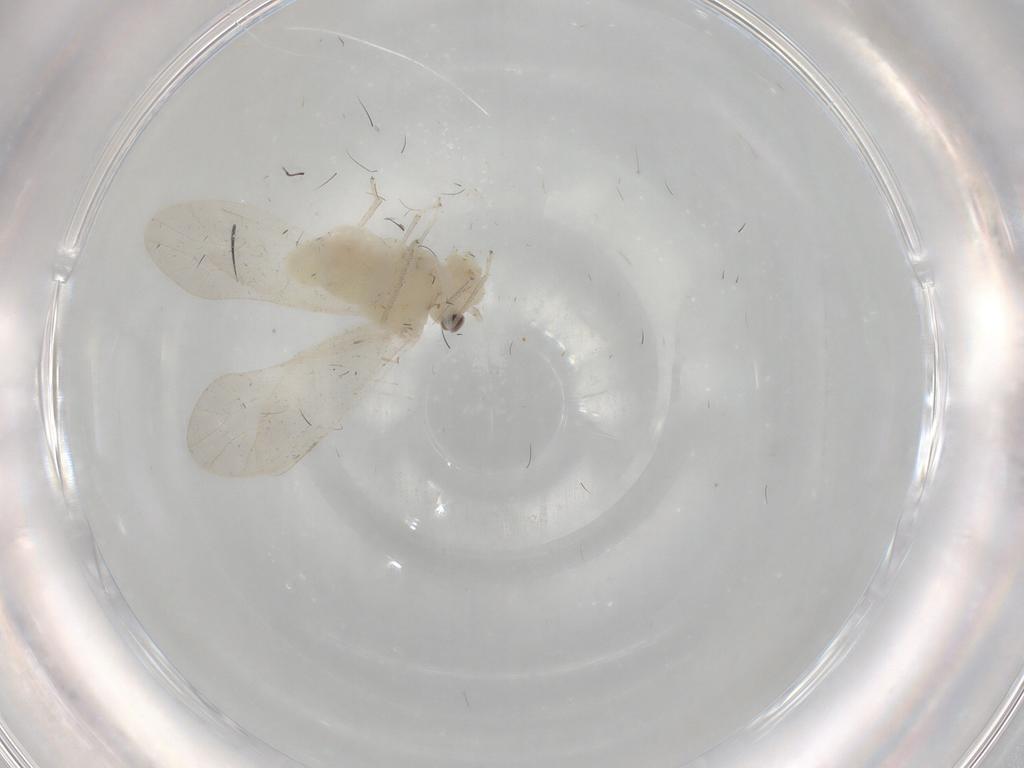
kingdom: Animalia
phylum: Arthropoda
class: Insecta
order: Psocodea
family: Caeciliusidae
